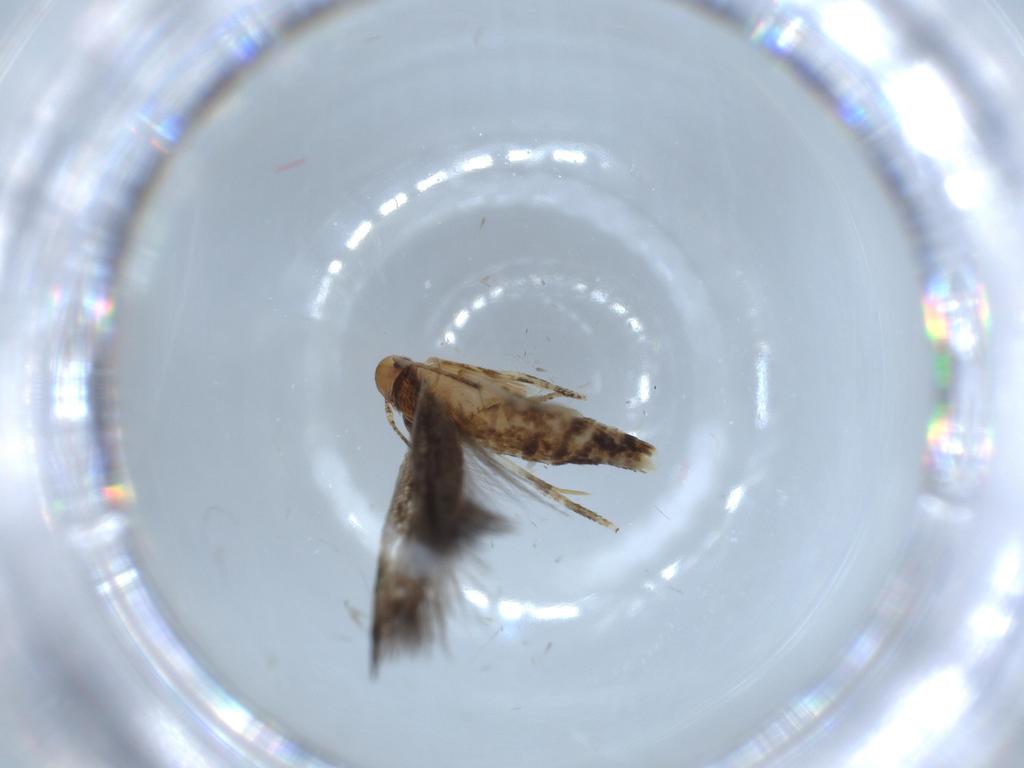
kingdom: Animalia
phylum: Arthropoda
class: Insecta
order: Lepidoptera
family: Momphidae
